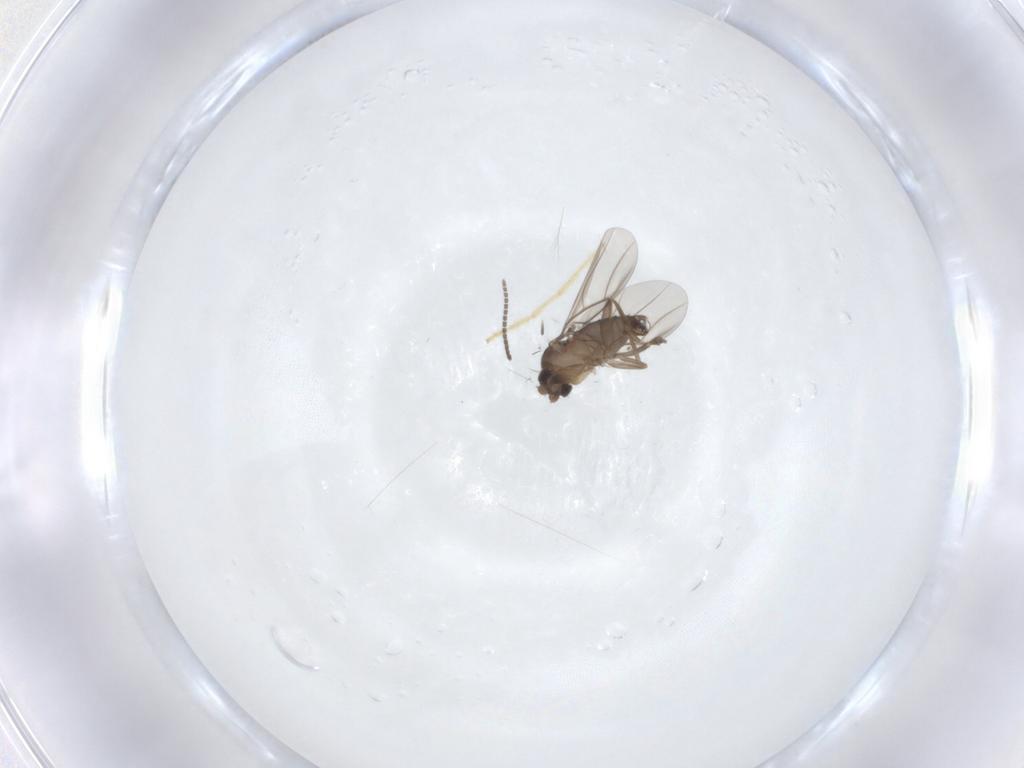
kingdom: Animalia
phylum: Arthropoda
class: Insecta
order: Diptera
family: Phoridae
